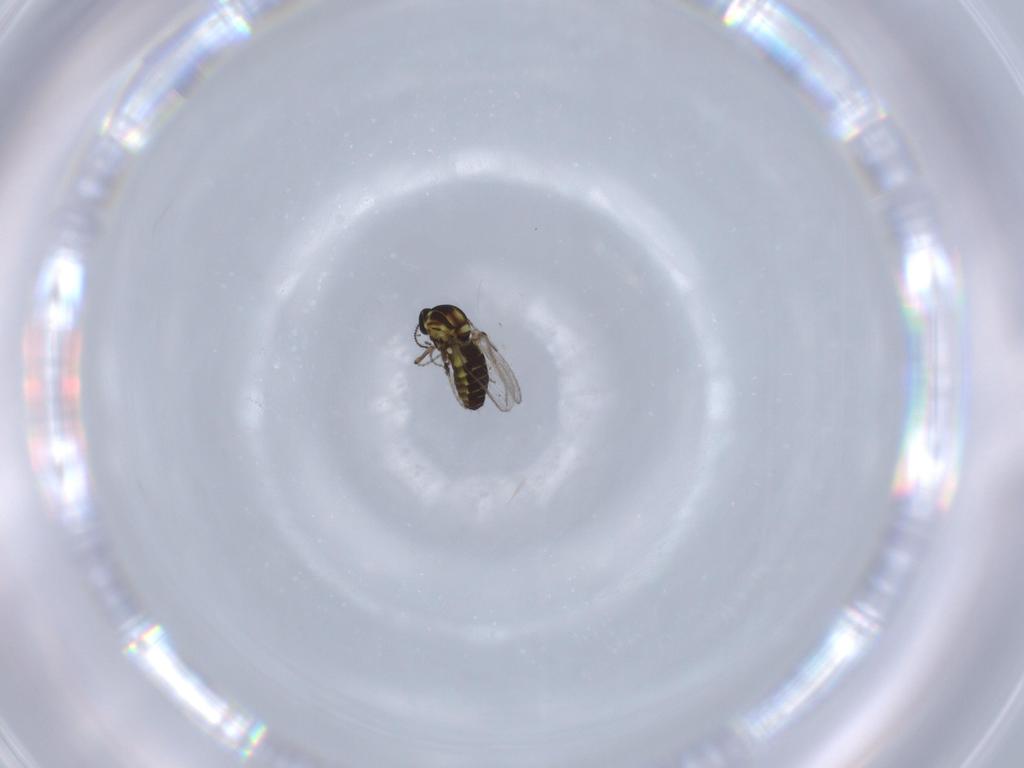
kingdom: Animalia
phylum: Arthropoda
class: Insecta
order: Diptera
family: Ceratopogonidae
